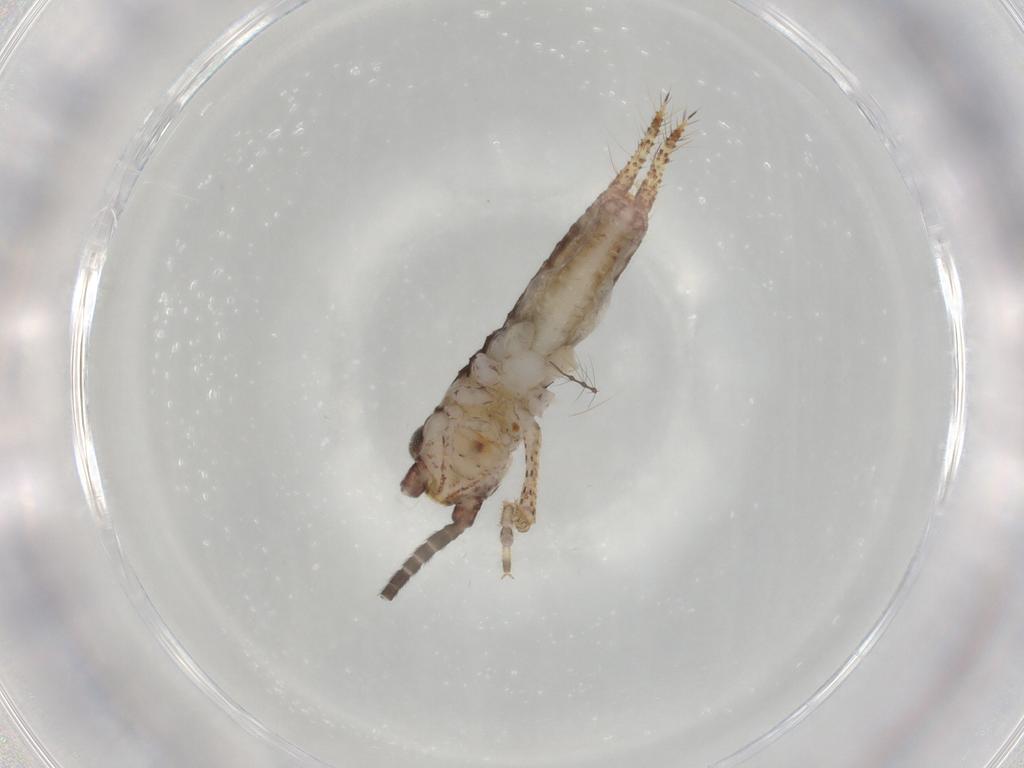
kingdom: Animalia
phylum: Arthropoda
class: Insecta
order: Orthoptera
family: Gryllidae
